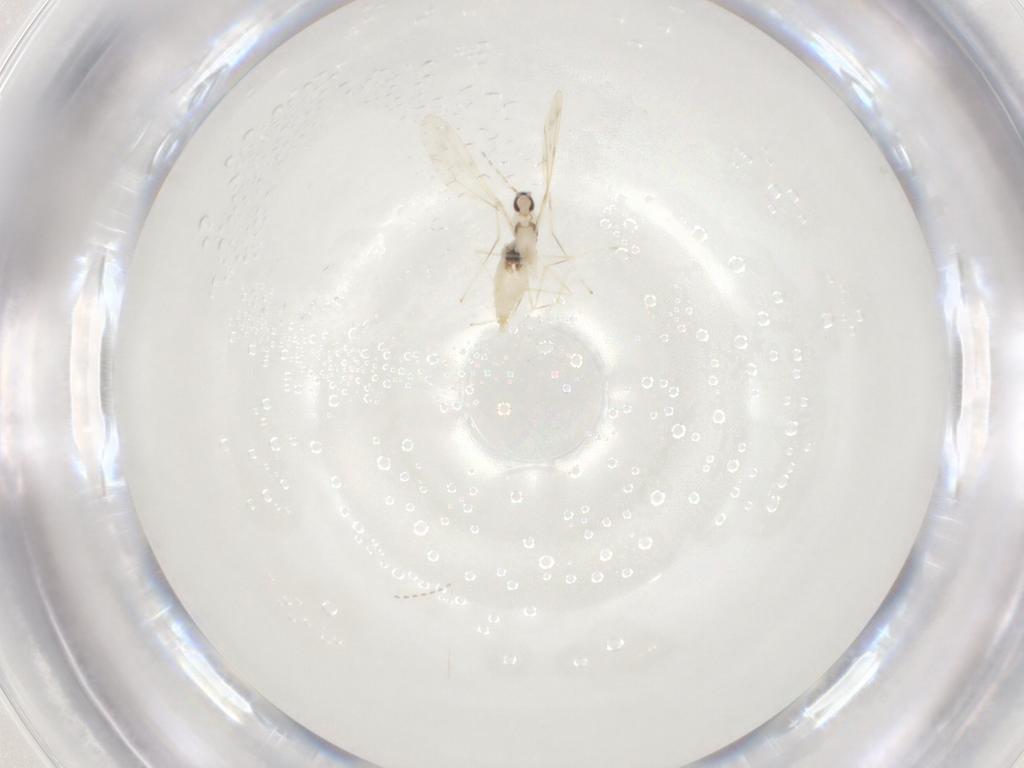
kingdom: Animalia
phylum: Arthropoda
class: Insecta
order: Diptera
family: Cecidomyiidae
